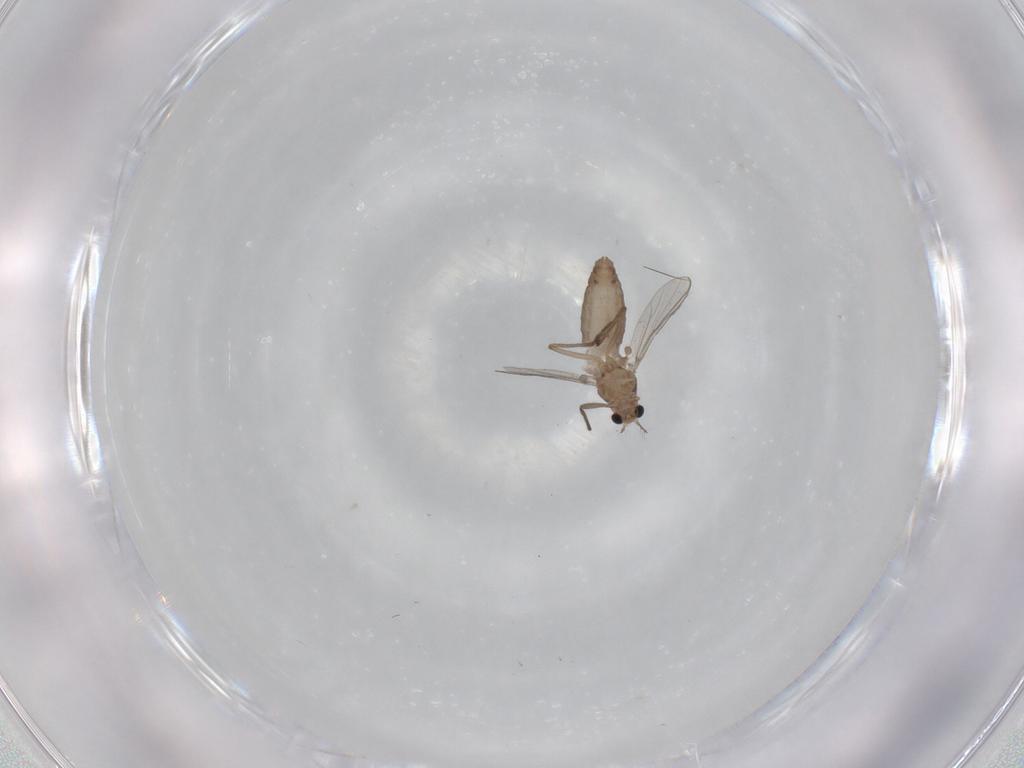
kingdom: Animalia
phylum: Arthropoda
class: Insecta
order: Diptera
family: Chironomidae
